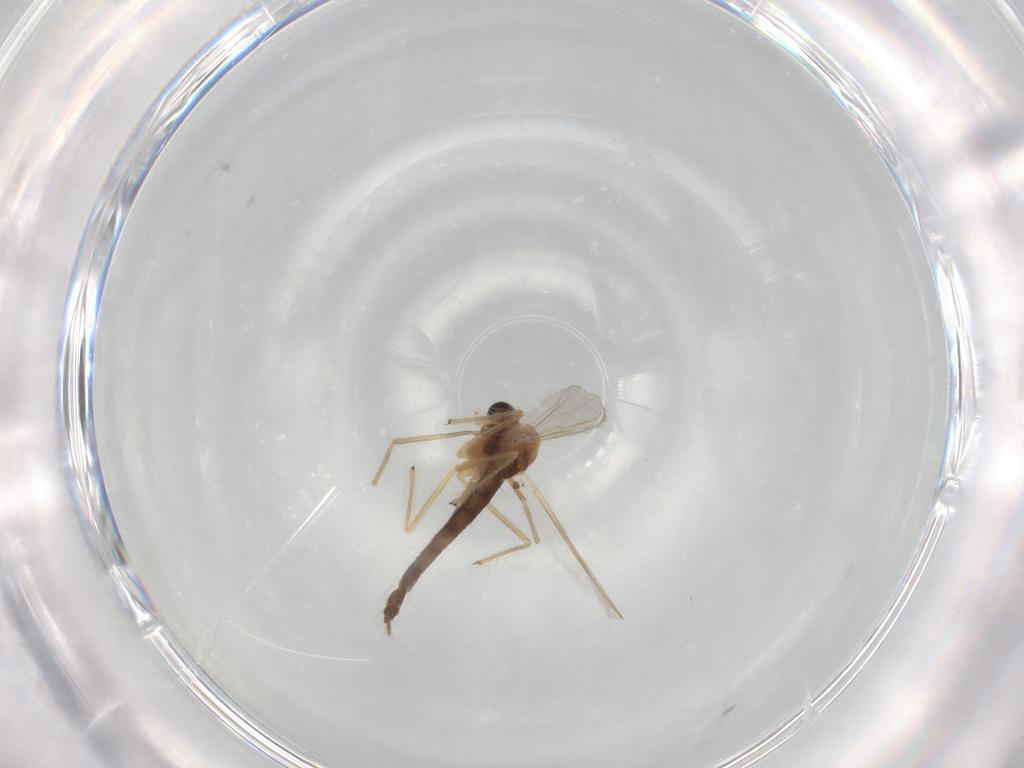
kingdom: Animalia
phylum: Arthropoda
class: Insecta
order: Diptera
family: Chironomidae
